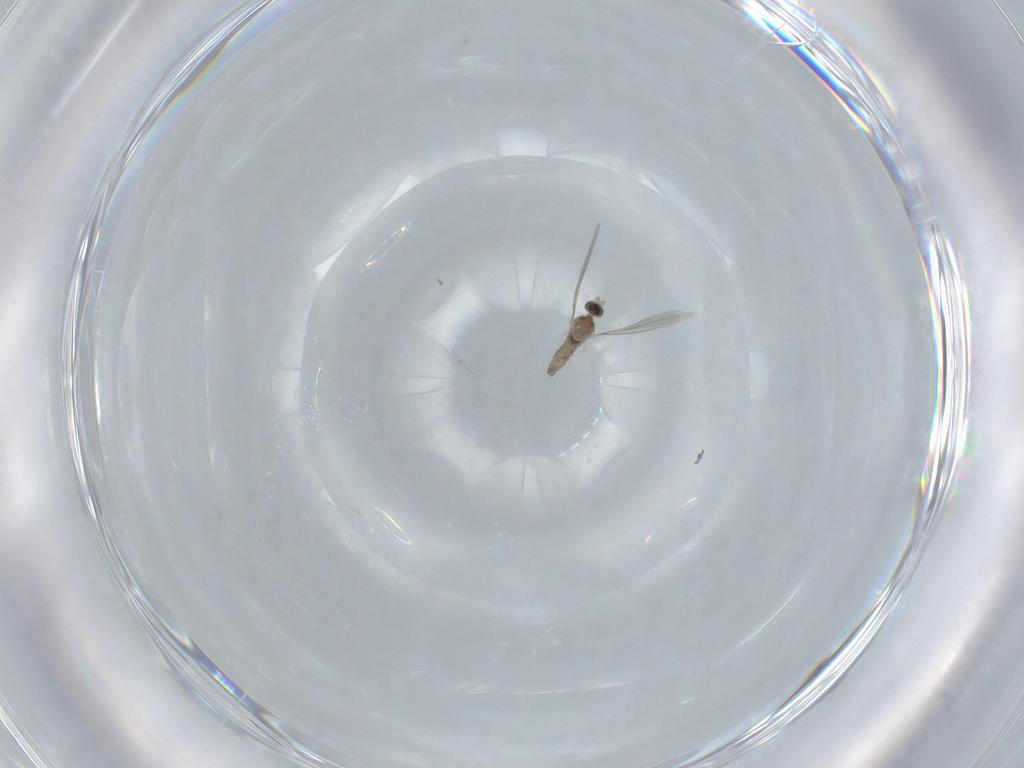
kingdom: Animalia
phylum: Arthropoda
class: Insecta
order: Diptera
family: Cecidomyiidae
